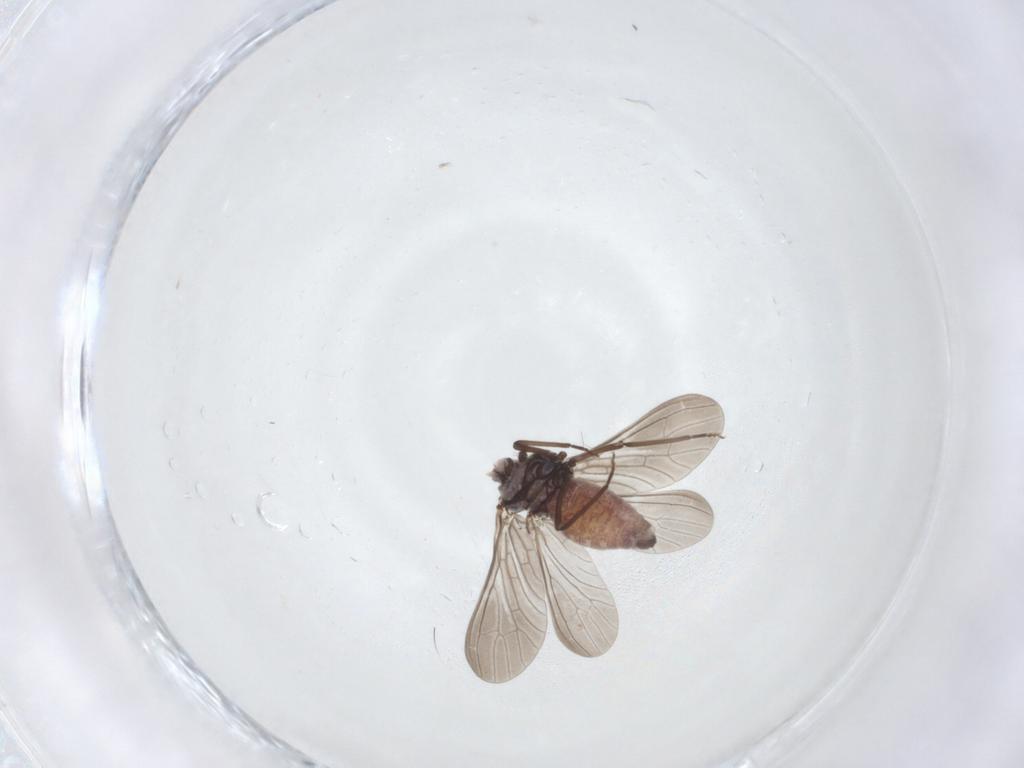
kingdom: Animalia
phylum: Arthropoda
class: Insecta
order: Neuroptera
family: Coniopterygidae
